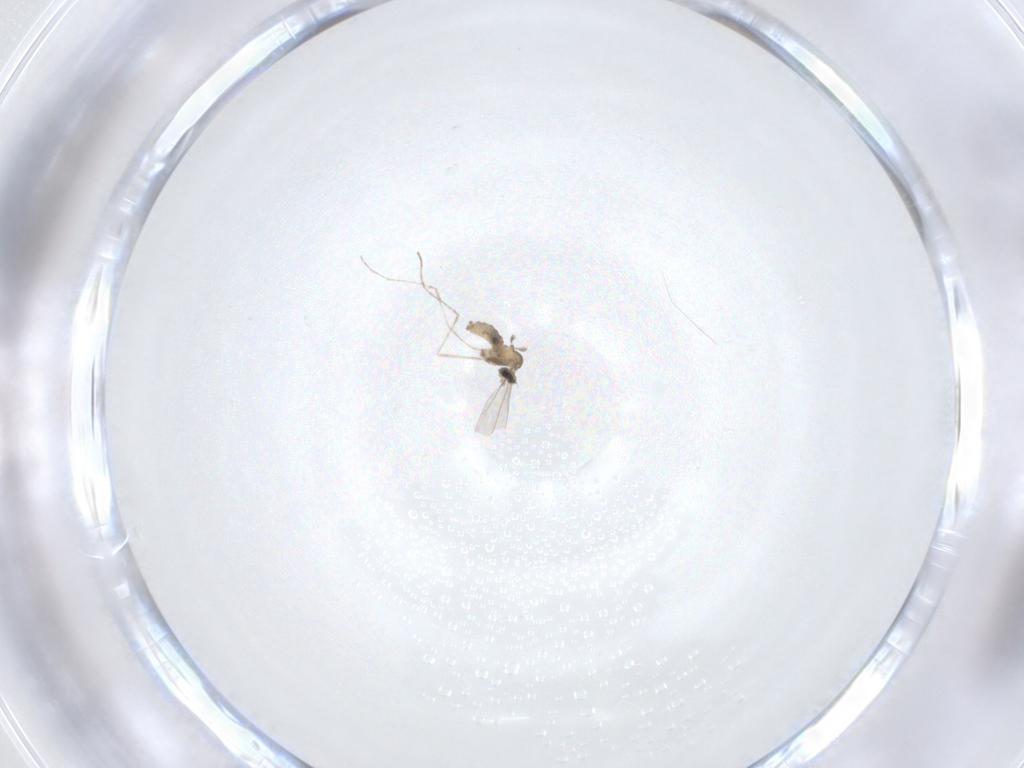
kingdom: Animalia
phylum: Arthropoda
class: Insecta
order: Diptera
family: Cecidomyiidae
